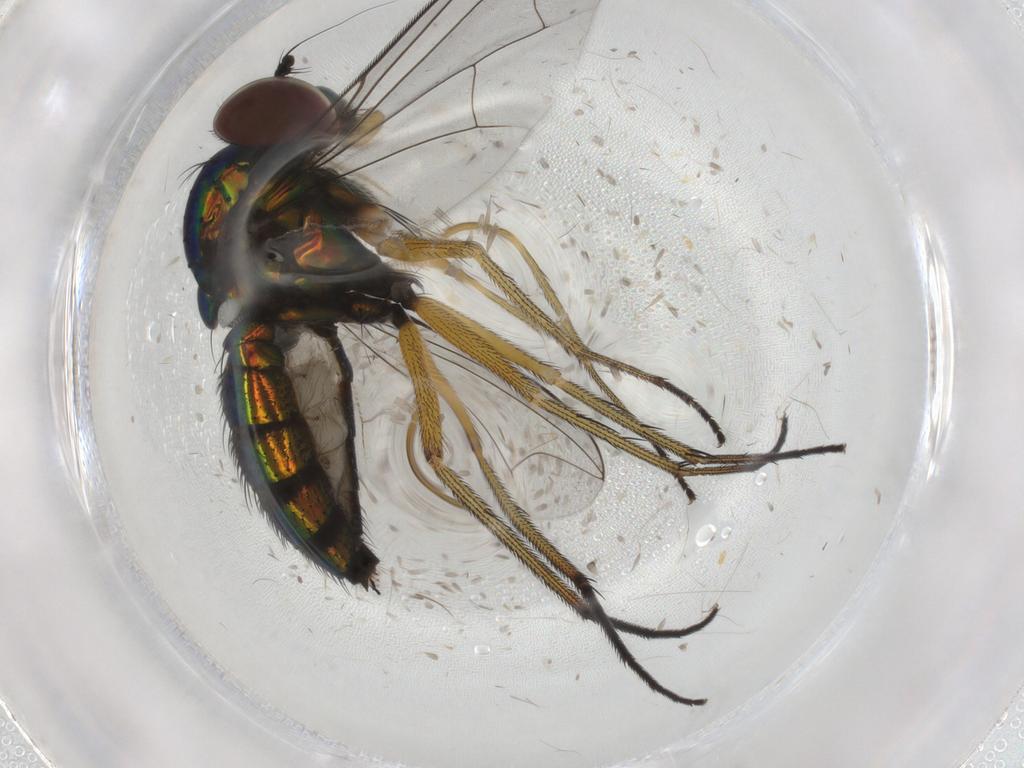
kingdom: Animalia
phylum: Arthropoda
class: Insecta
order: Diptera
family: Dolichopodidae
